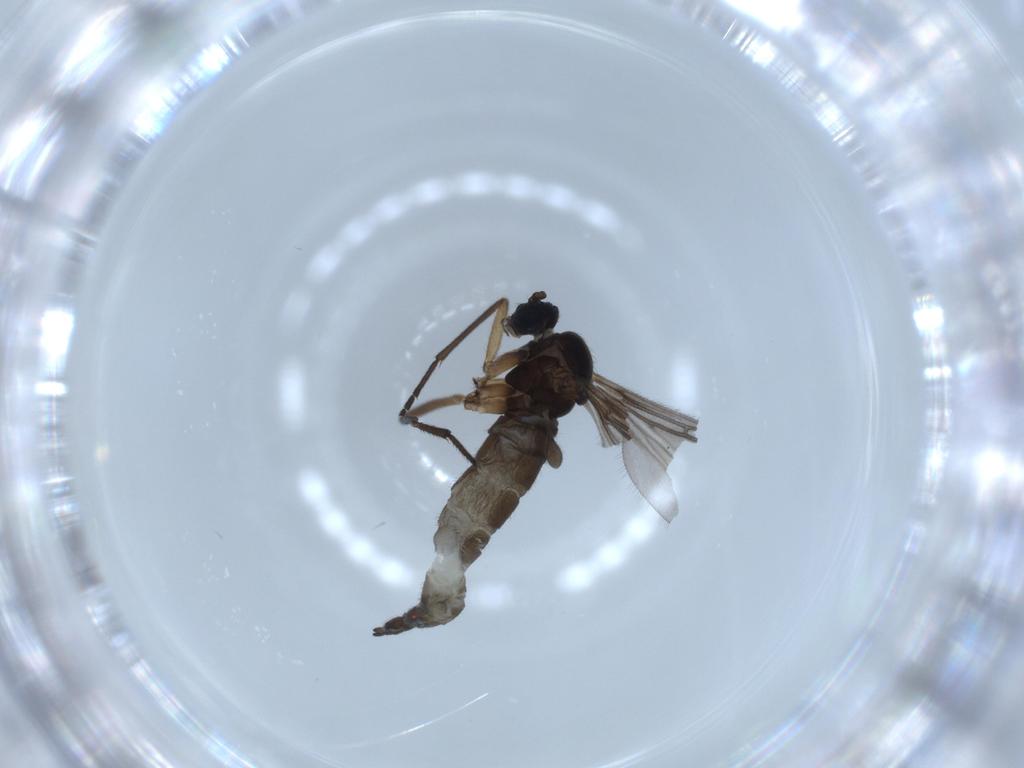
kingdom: Animalia
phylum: Arthropoda
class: Insecta
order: Diptera
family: Sciaridae
